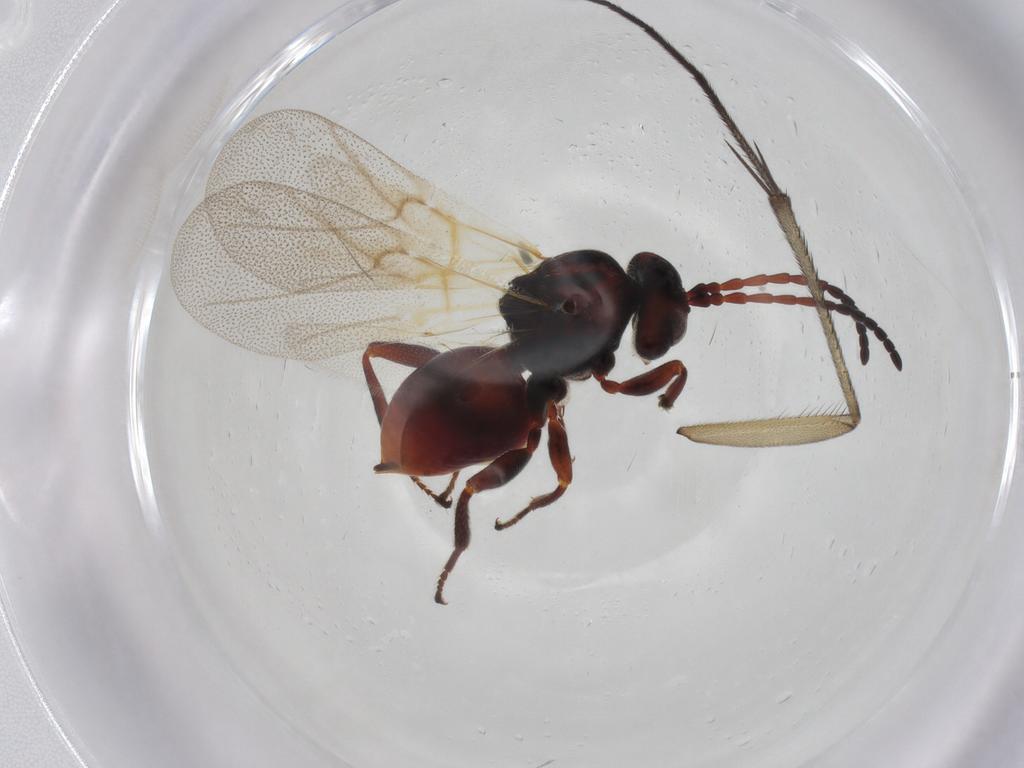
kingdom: Animalia
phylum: Arthropoda
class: Insecta
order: Hymenoptera
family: Cynipidae
